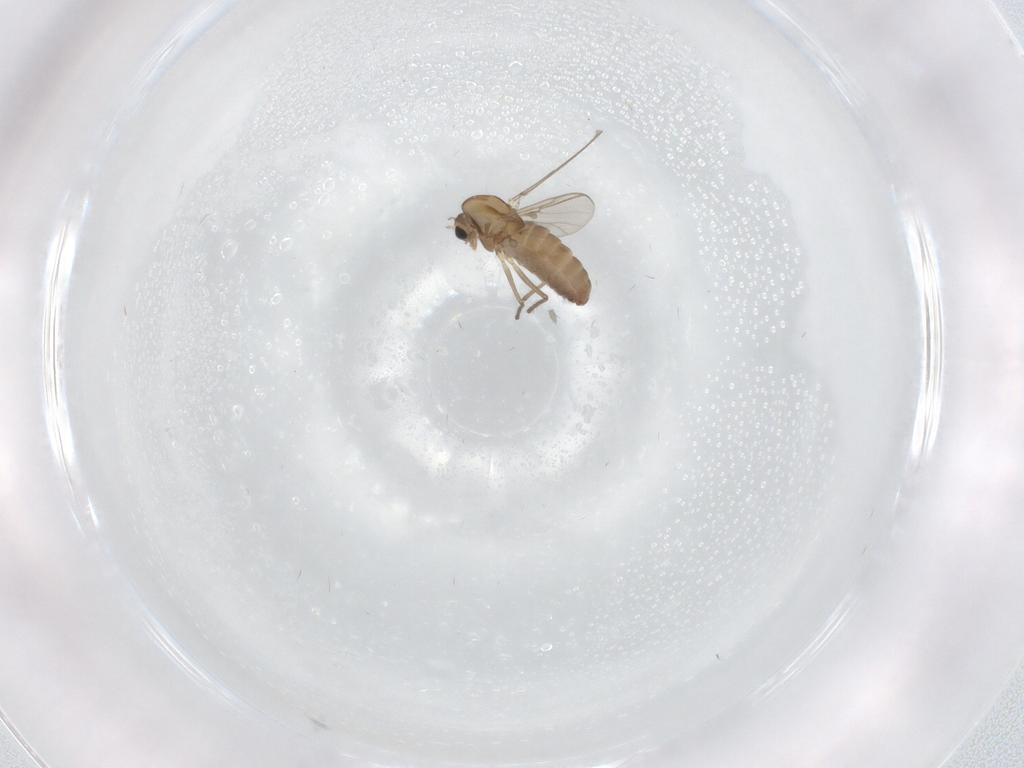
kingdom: Animalia
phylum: Arthropoda
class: Insecta
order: Diptera
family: Chironomidae
